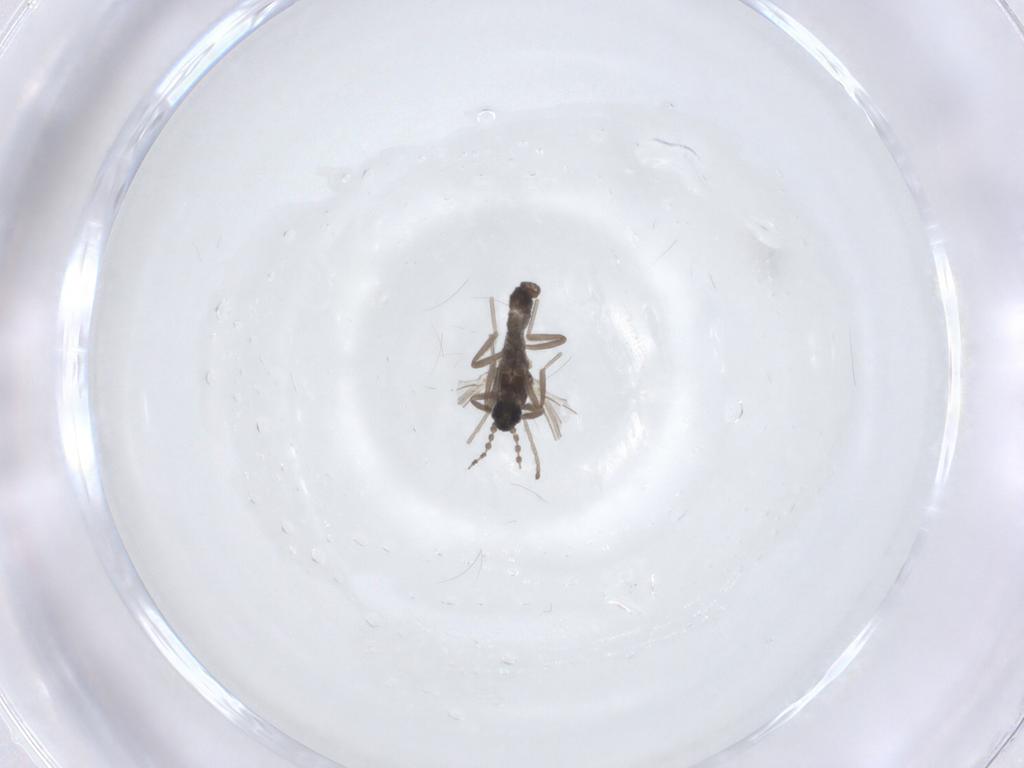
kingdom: Animalia
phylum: Arthropoda
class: Insecta
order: Diptera
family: Cecidomyiidae
